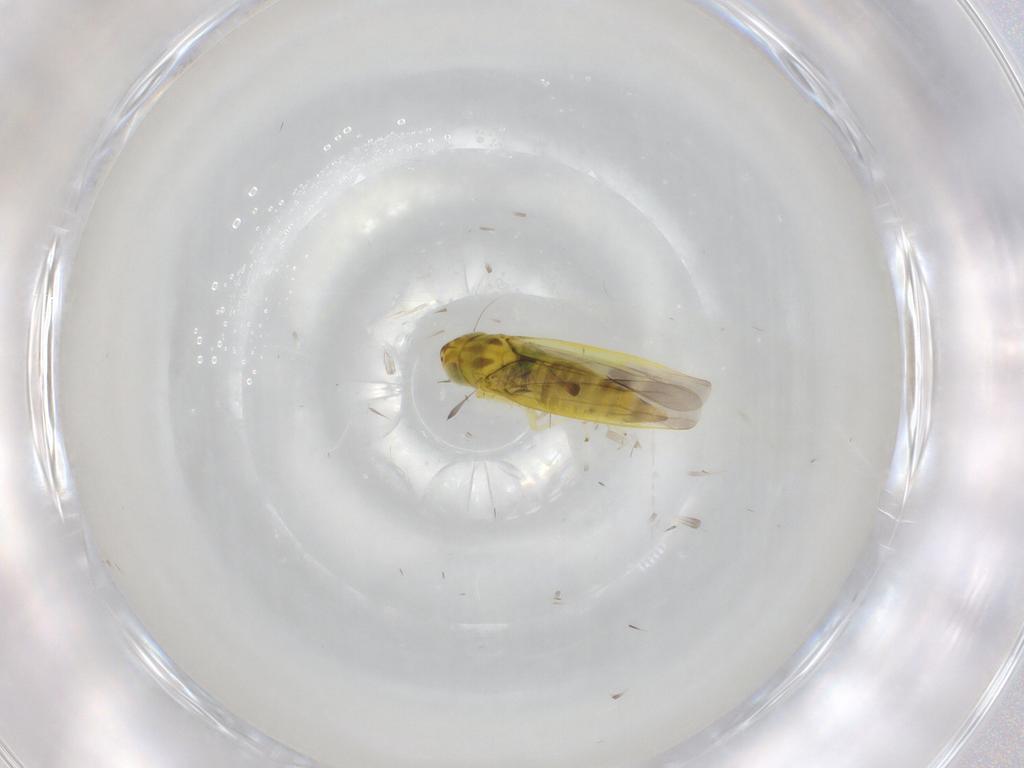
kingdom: Animalia
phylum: Arthropoda
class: Insecta
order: Hemiptera
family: Cicadellidae
